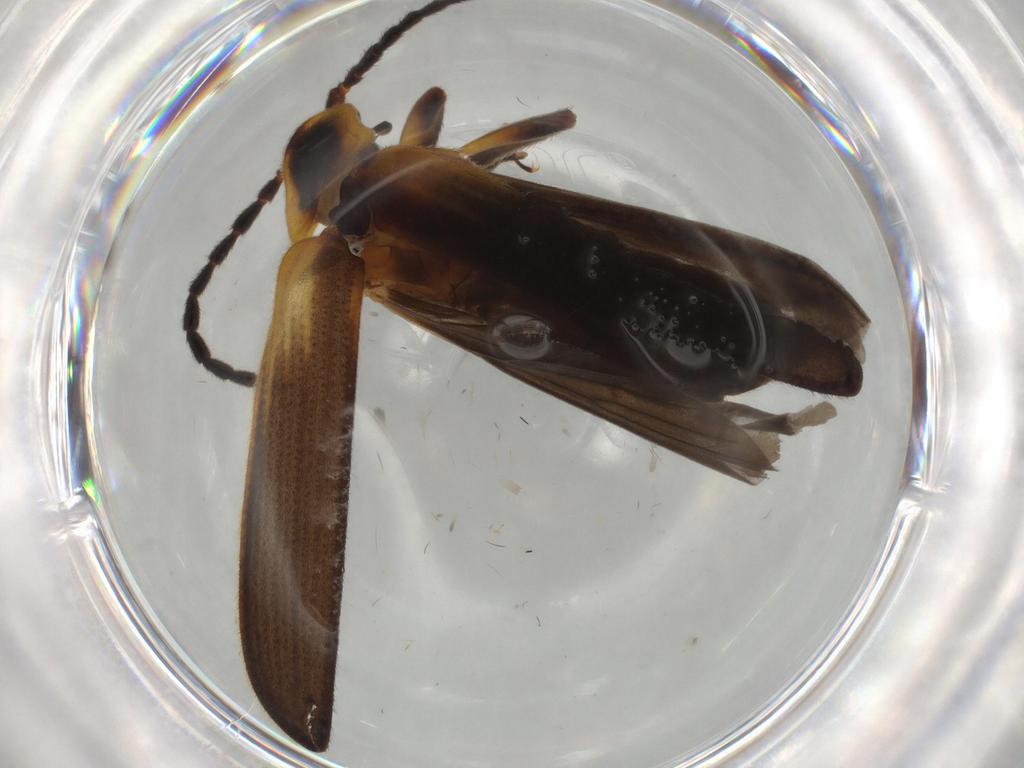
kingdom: Animalia
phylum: Arthropoda
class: Insecta
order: Coleoptera
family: Lycidae
